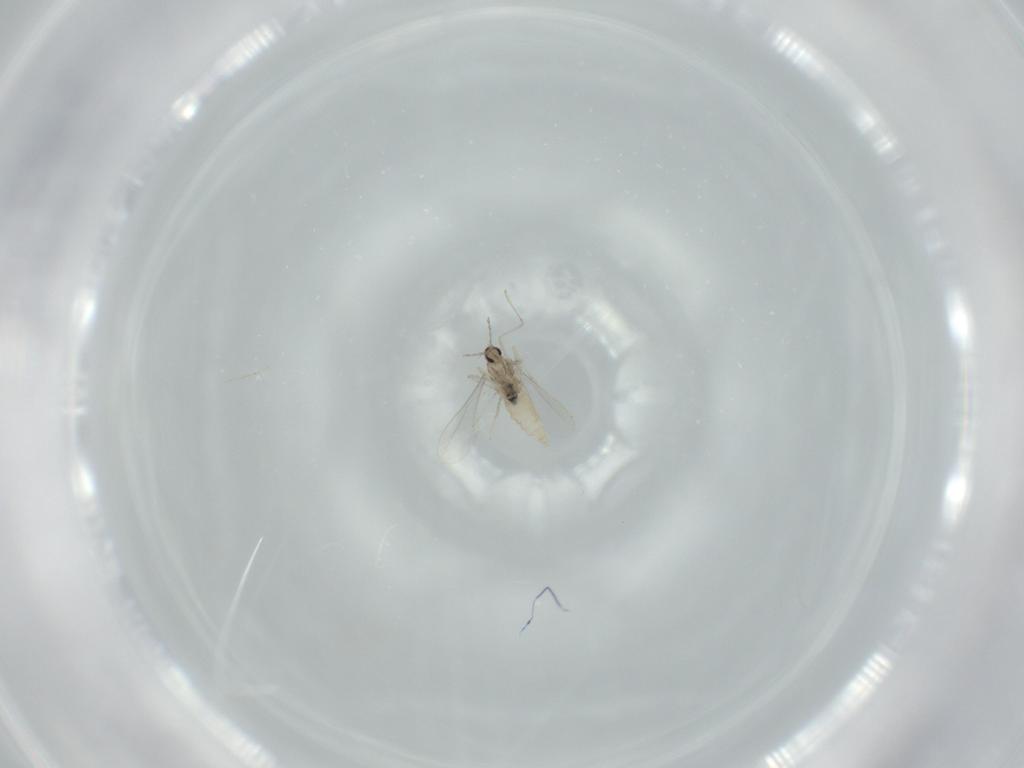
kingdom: Animalia
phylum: Arthropoda
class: Insecta
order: Diptera
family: Cecidomyiidae
